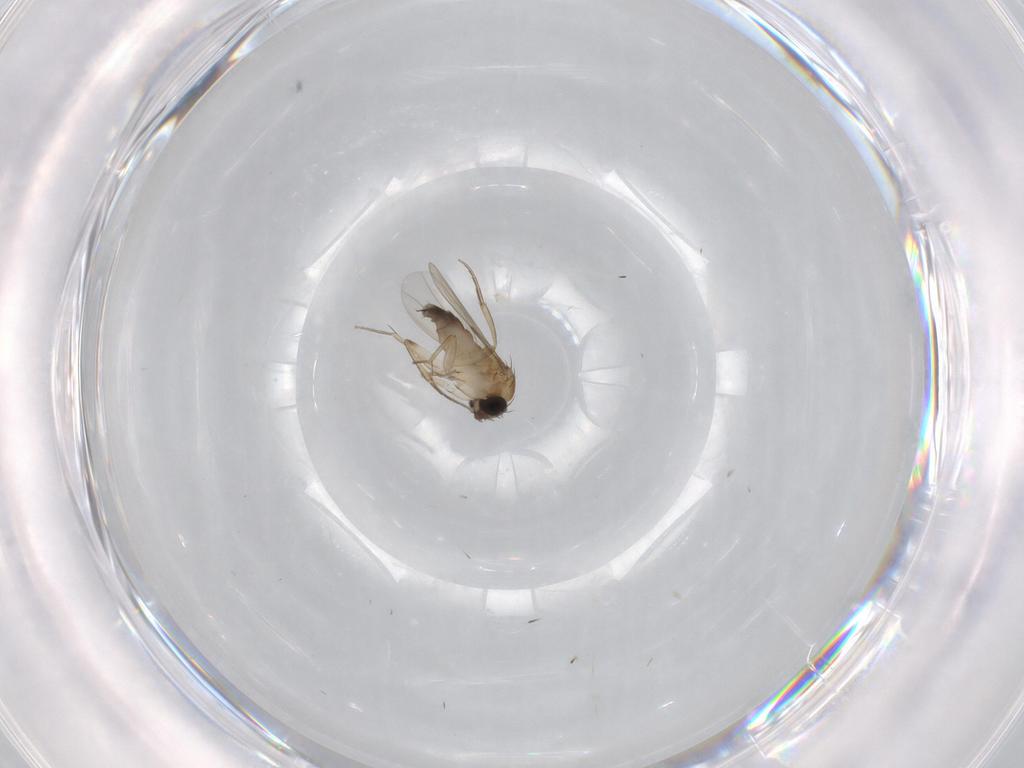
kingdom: Animalia
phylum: Arthropoda
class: Insecta
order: Diptera
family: Phoridae
